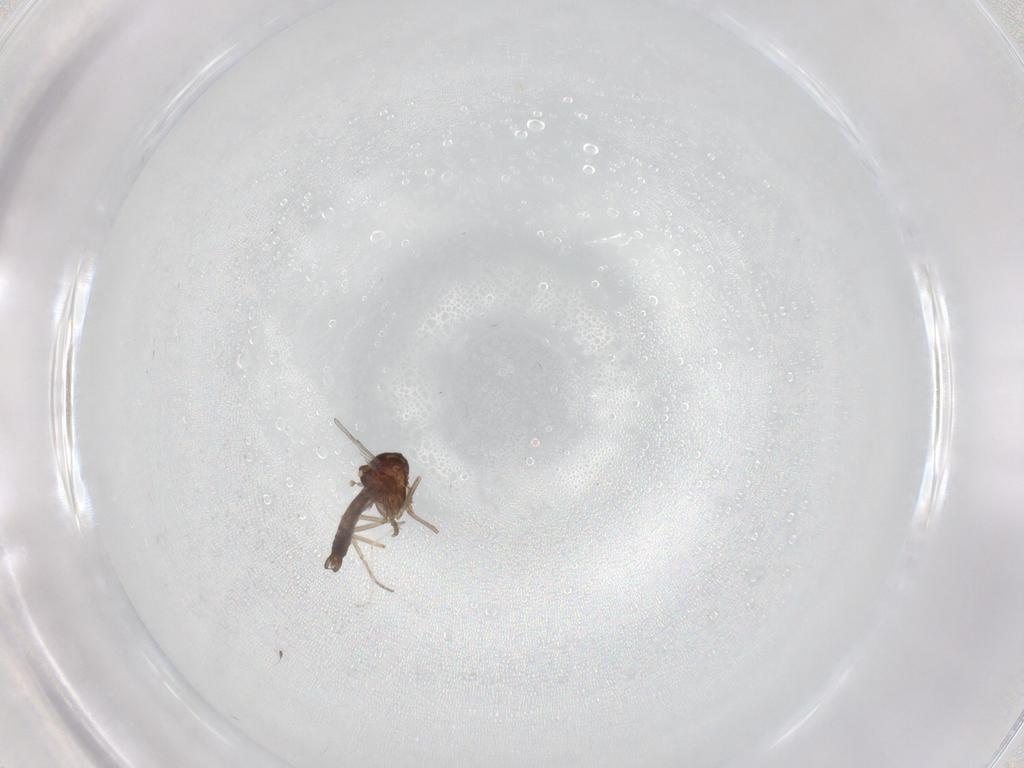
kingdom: Animalia
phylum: Arthropoda
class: Insecta
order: Diptera
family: Ceratopogonidae
